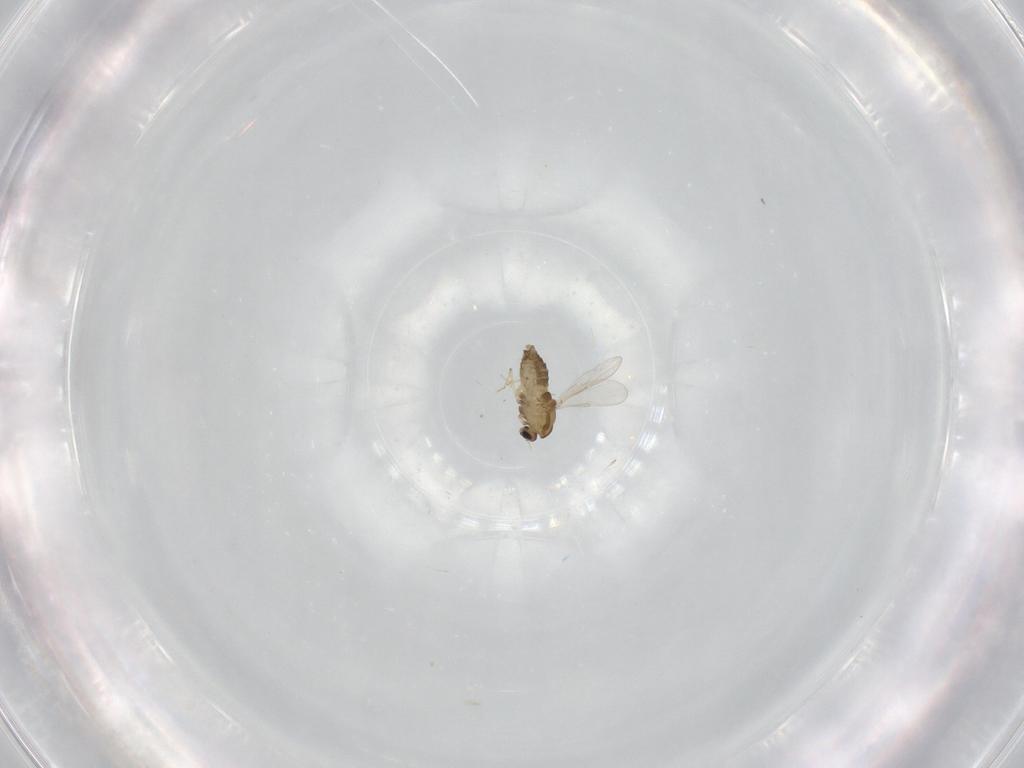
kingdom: Animalia
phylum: Arthropoda
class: Insecta
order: Diptera
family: Chironomidae
